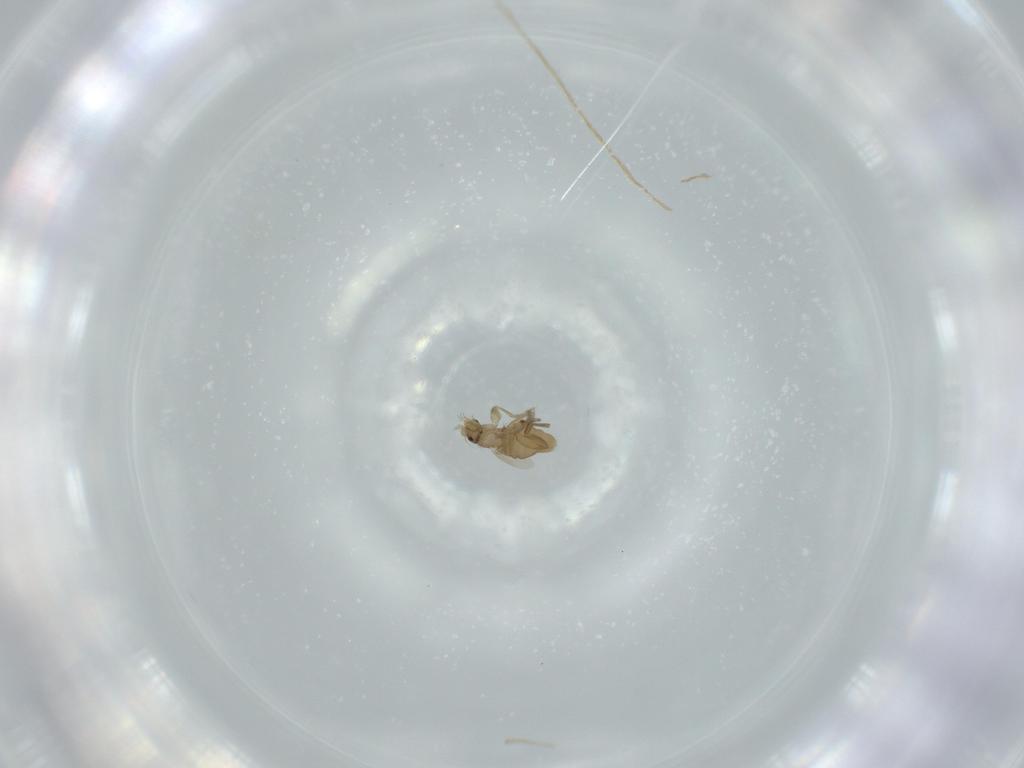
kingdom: Animalia
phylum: Arthropoda
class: Insecta
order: Diptera
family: Phoridae
